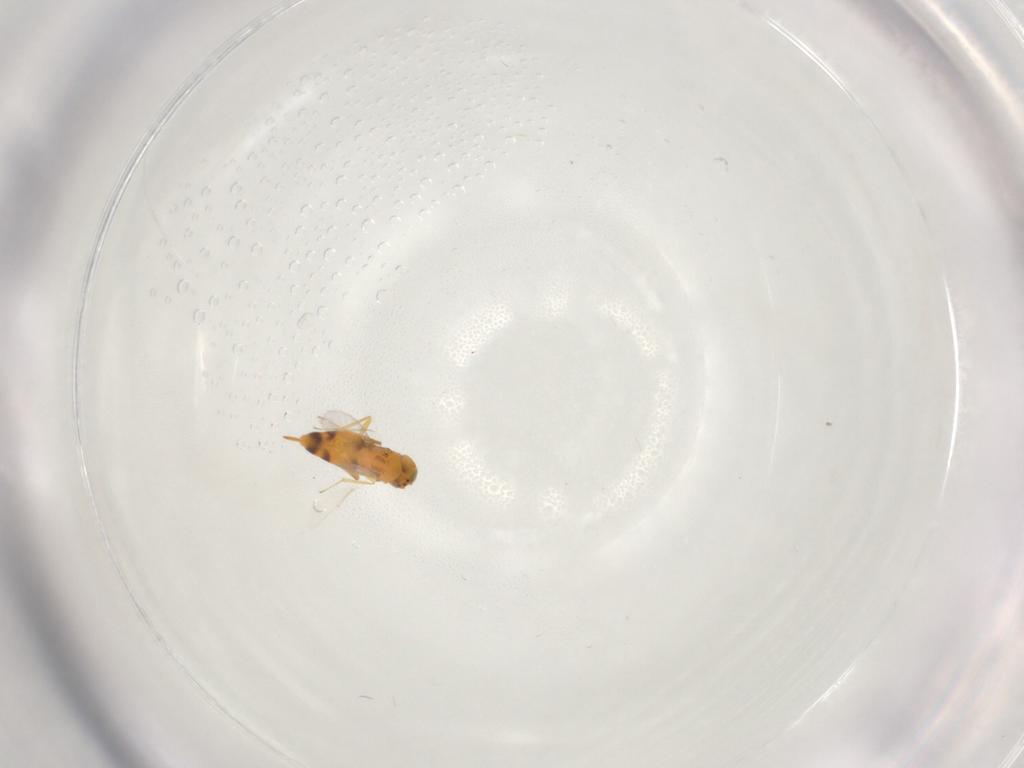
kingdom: Animalia
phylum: Arthropoda
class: Insecta
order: Hymenoptera
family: Aphelinidae
